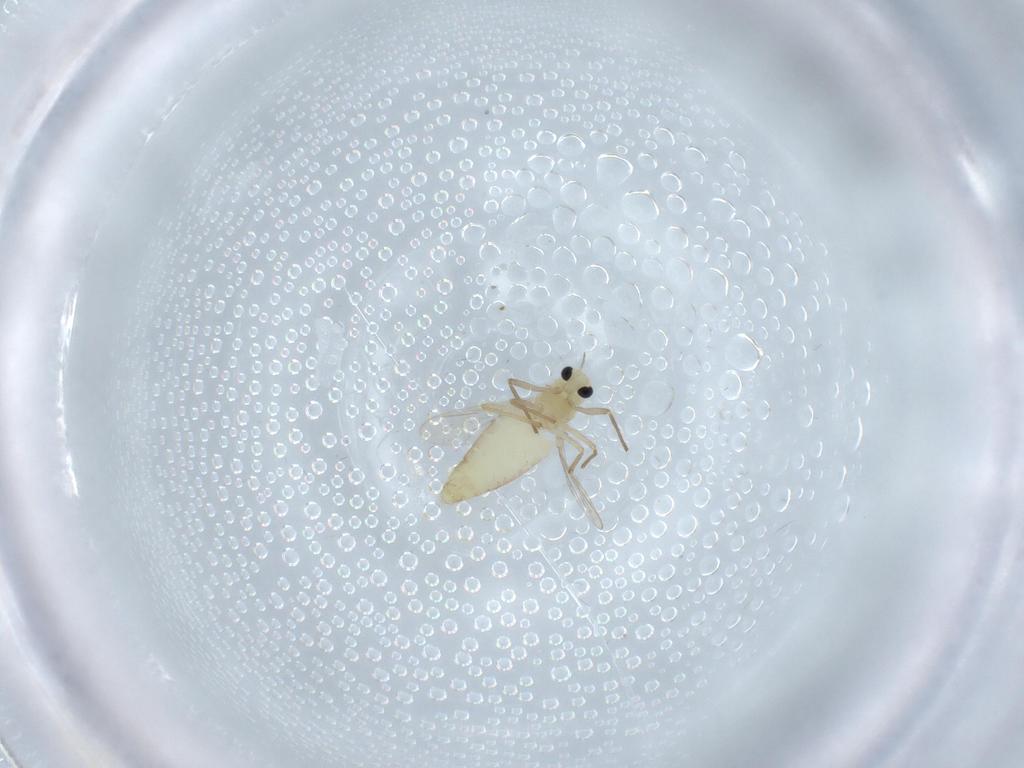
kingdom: Animalia
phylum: Arthropoda
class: Insecta
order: Diptera
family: Chironomidae
